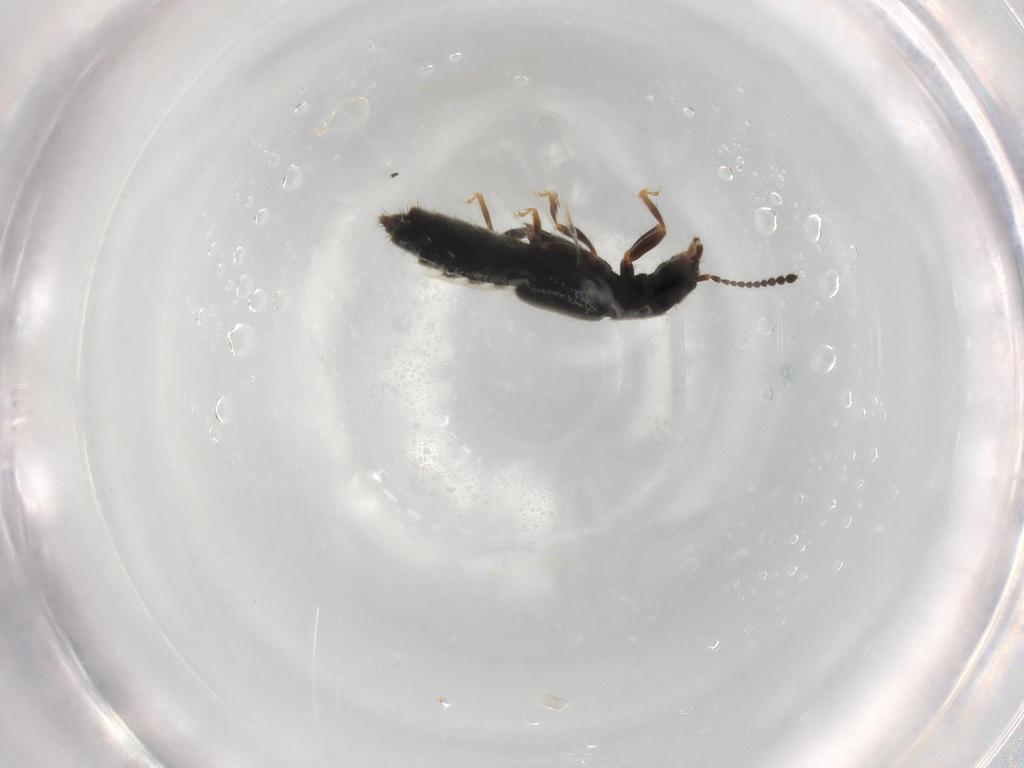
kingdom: Animalia
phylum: Arthropoda
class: Insecta
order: Coleoptera
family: Staphylinidae
